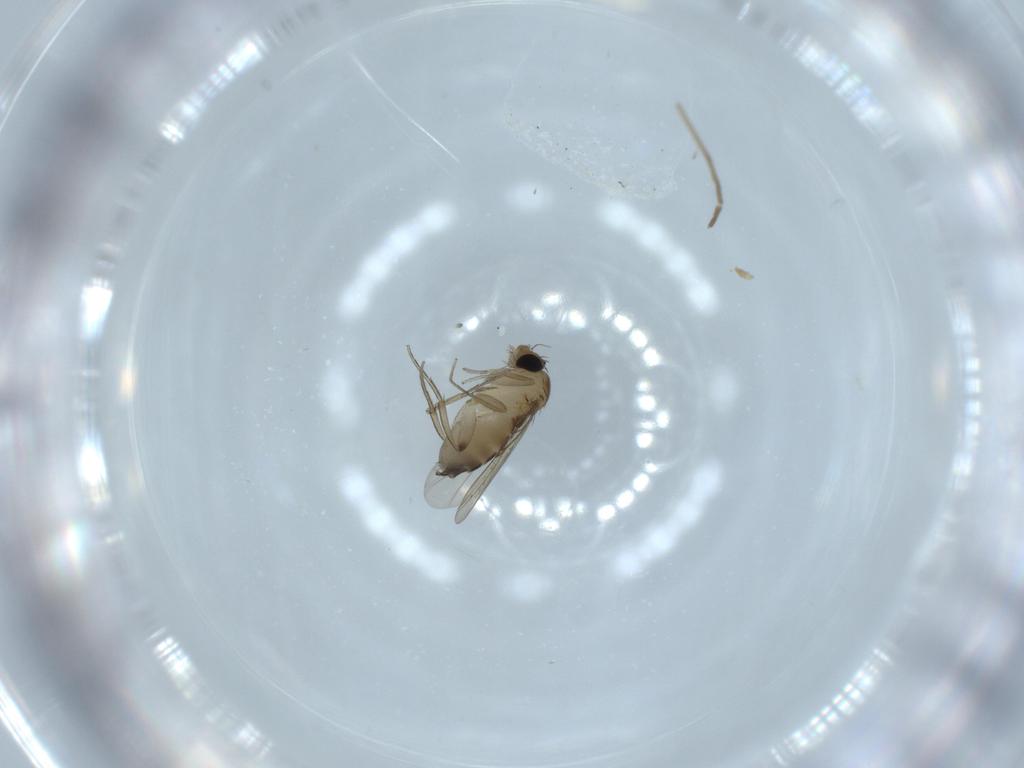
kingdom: Animalia
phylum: Arthropoda
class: Insecta
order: Diptera
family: Phoridae
